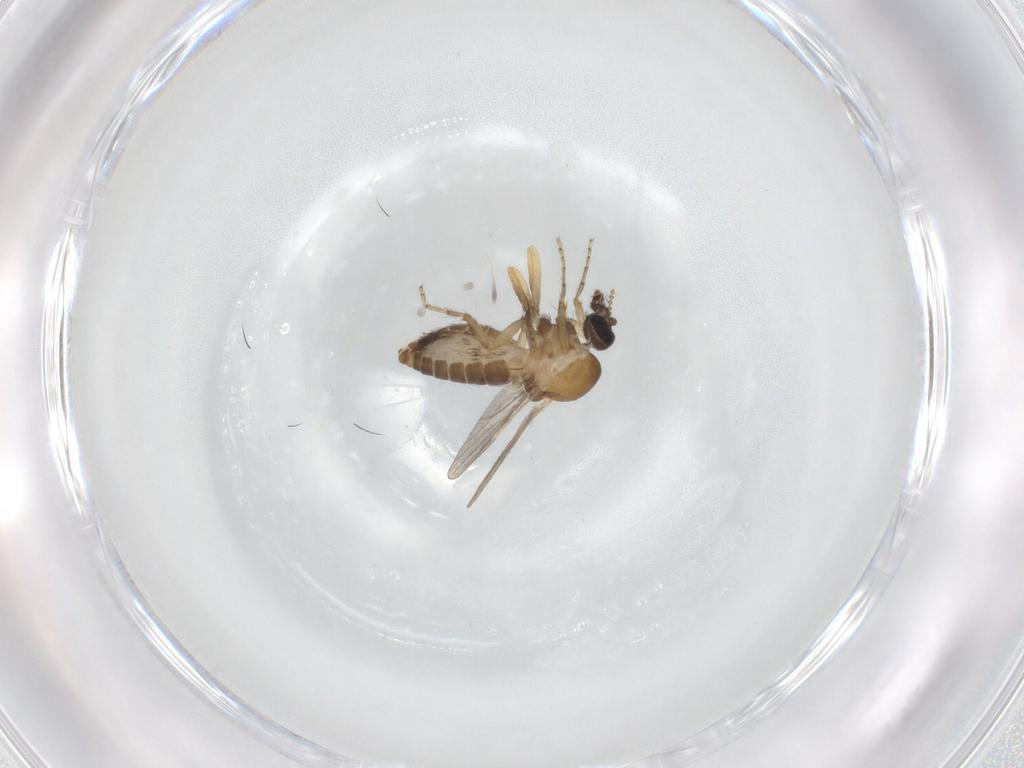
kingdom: Animalia
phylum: Arthropoda
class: Insecta
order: Diptera
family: Ceratopogonidae
